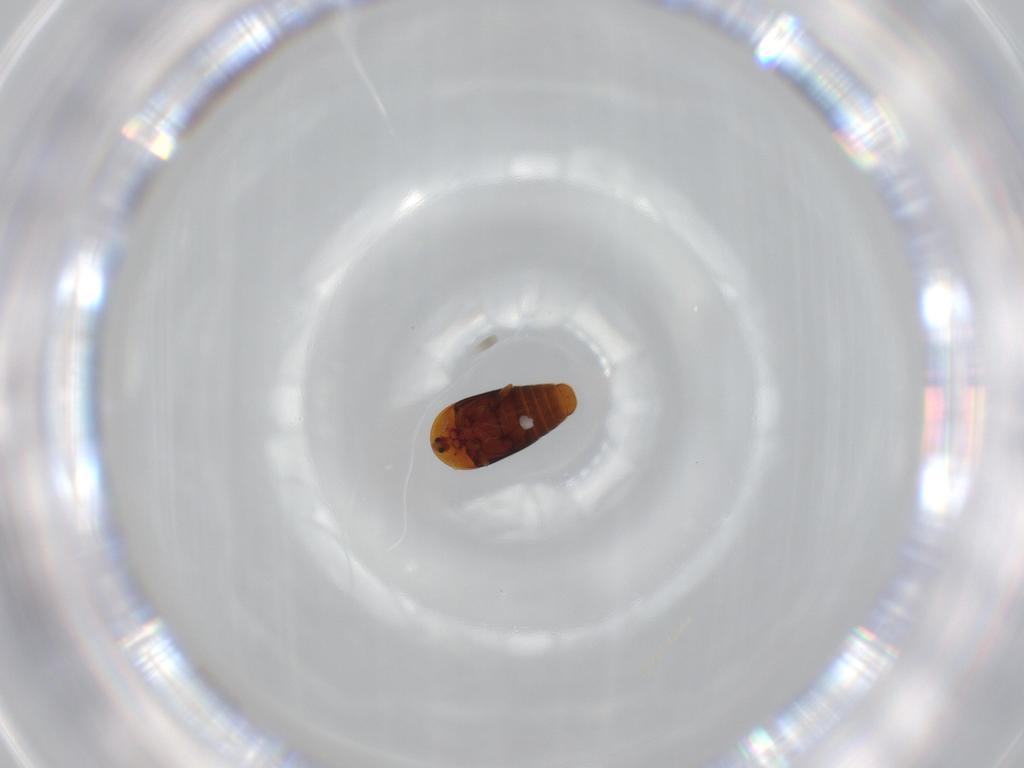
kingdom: Animalia
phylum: Arthropoda
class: Insecta
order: Coleoptera
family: Corylophidae
